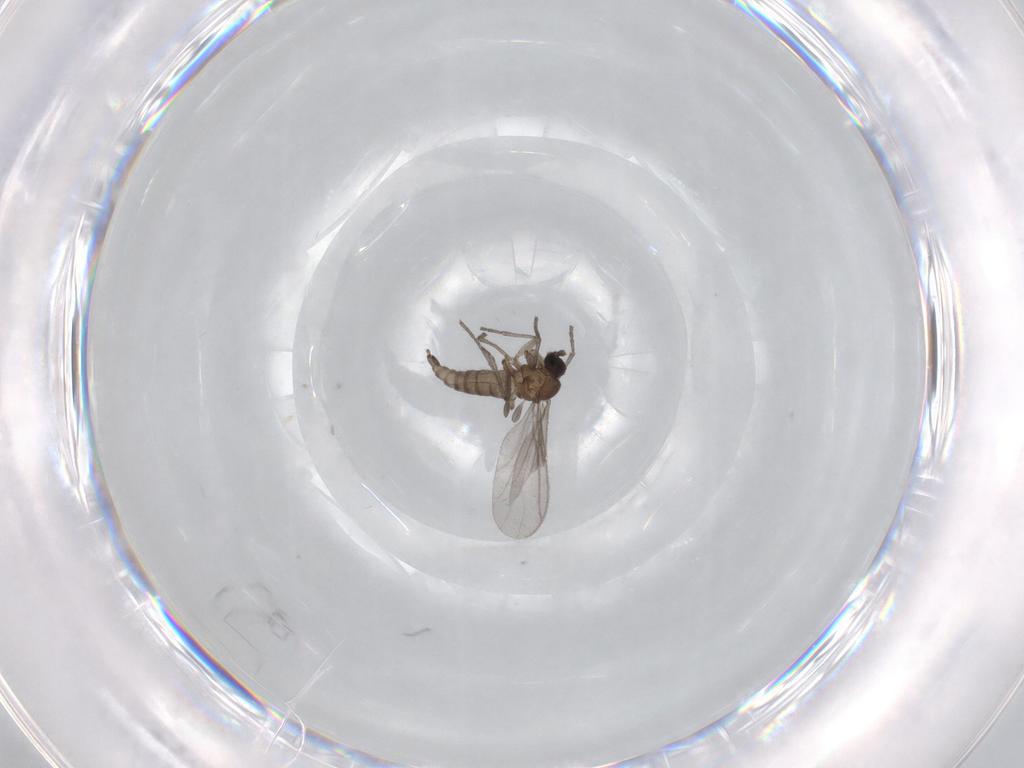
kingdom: Animalia
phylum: Arthropoda
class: Insecta
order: Diptera
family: Sciaridae
